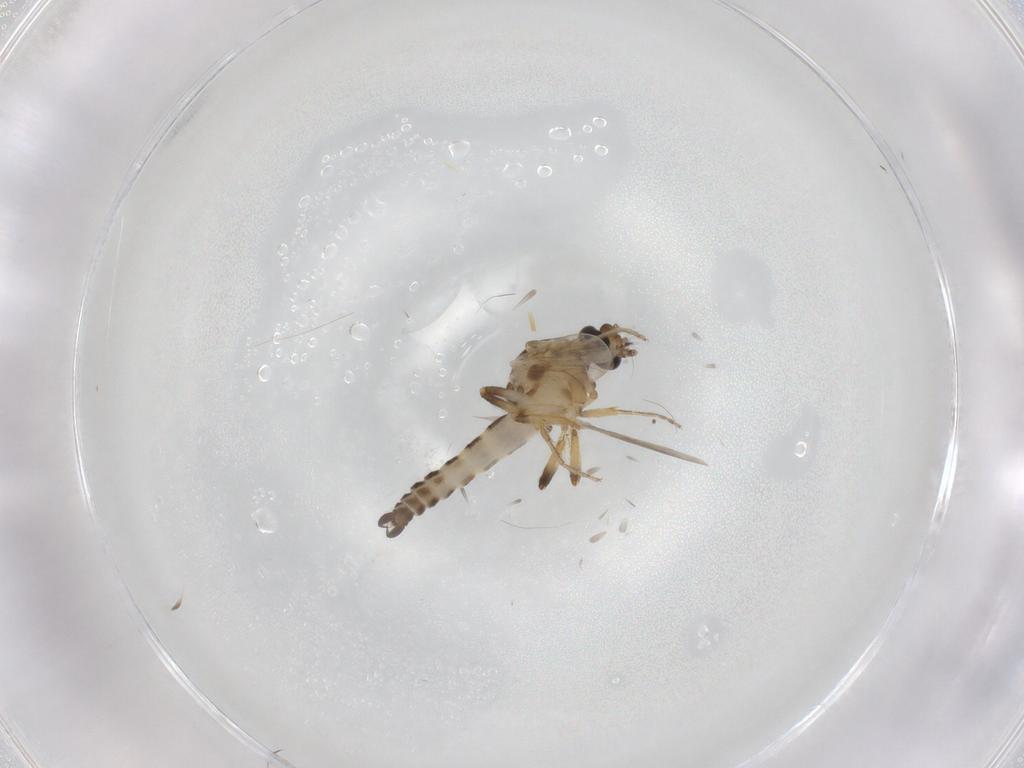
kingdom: Animalia
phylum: Arthropoda
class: Insecta
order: Diptera
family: Ceratopogonidae
